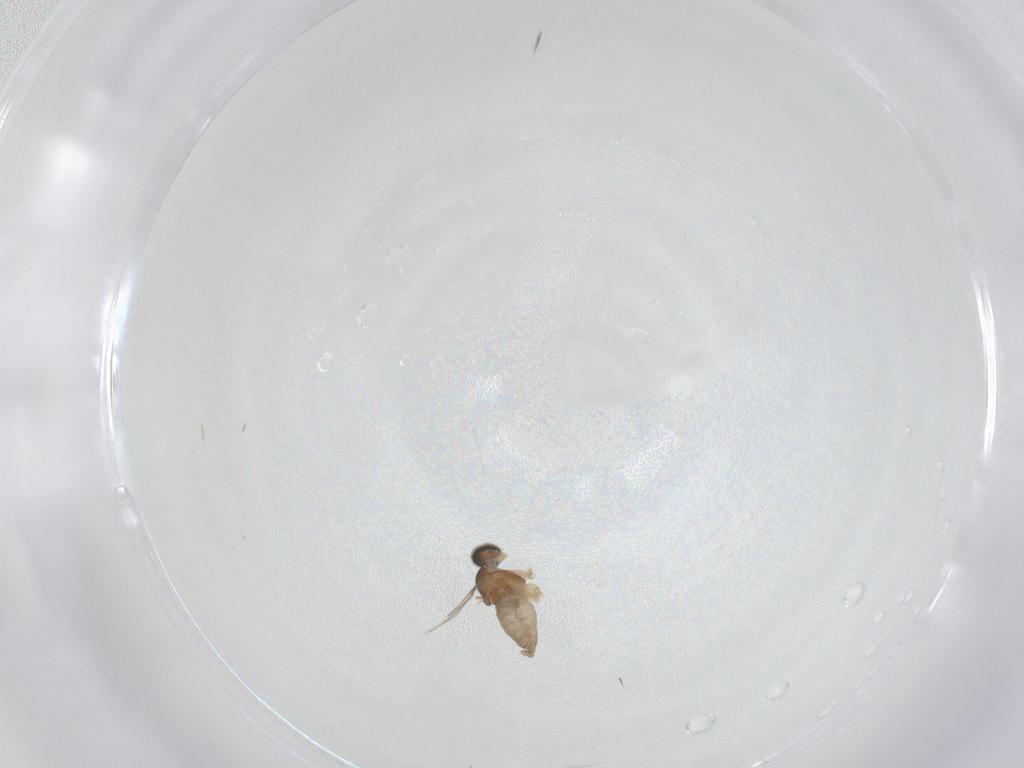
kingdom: Animalia
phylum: Arthropoda
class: Insecta
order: Diptera
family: Cecidomyiidae
